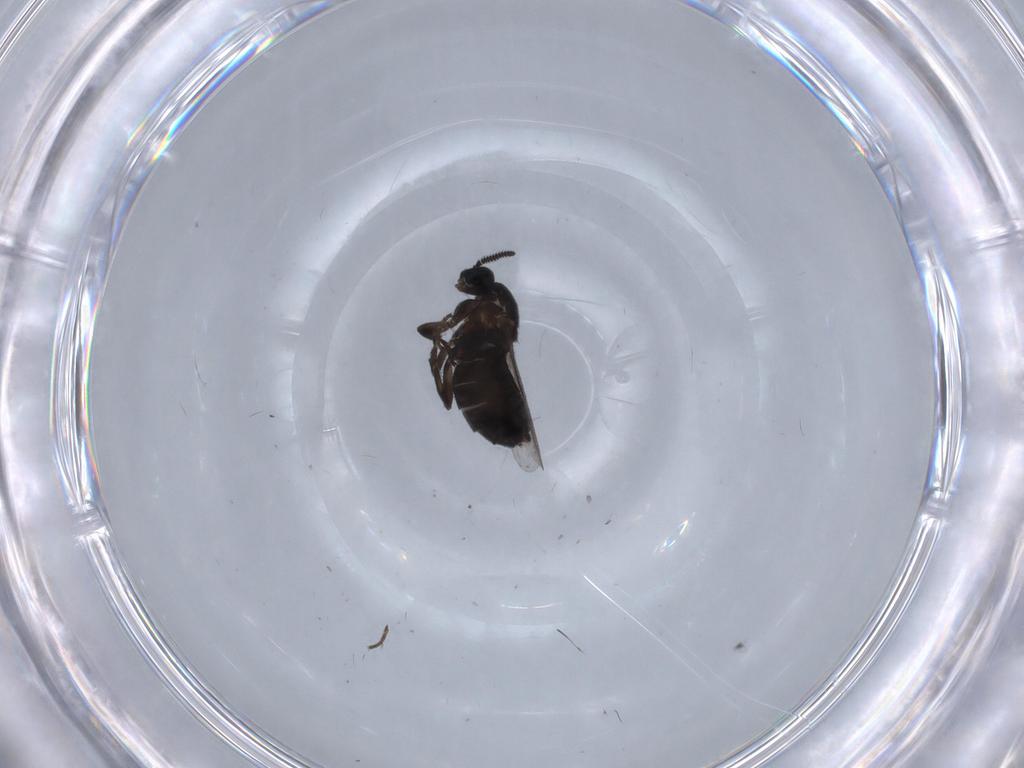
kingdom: Animalia
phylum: Arthropoda
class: Insecta
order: Diptera
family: Scatopsidae
